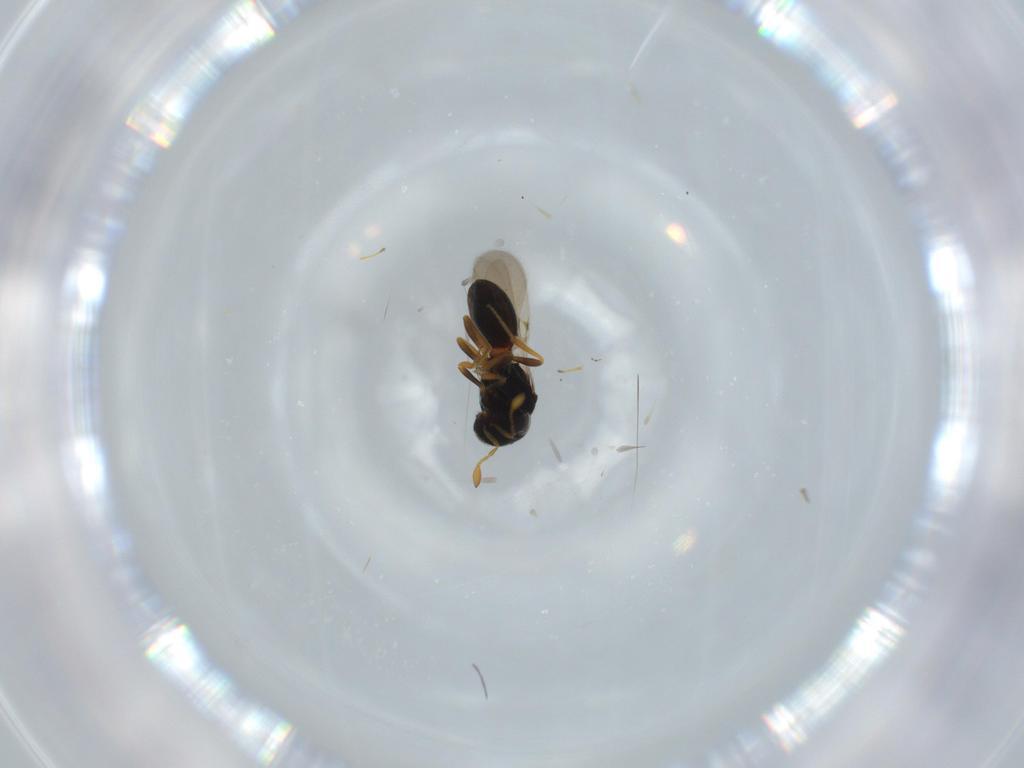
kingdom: Animalia
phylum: Arthropoda
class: Insecta
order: Hymenoptera
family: Scelionidae
